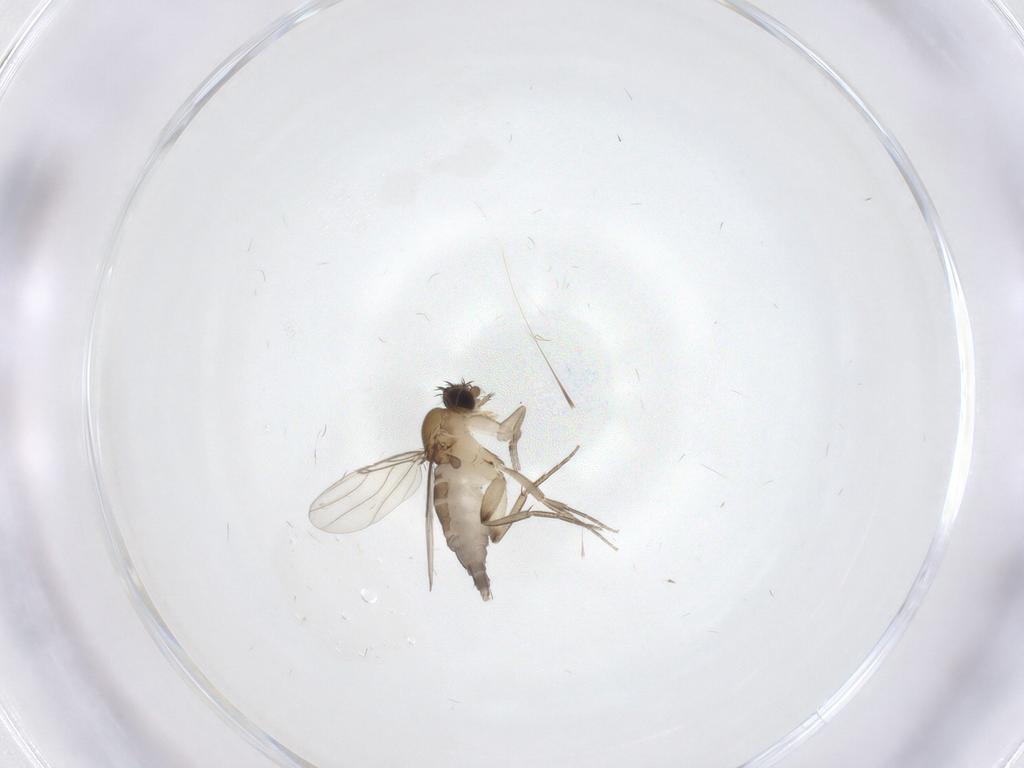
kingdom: Animalia
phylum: Arthropoda
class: Insecta
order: Diptera
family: Phoridae
